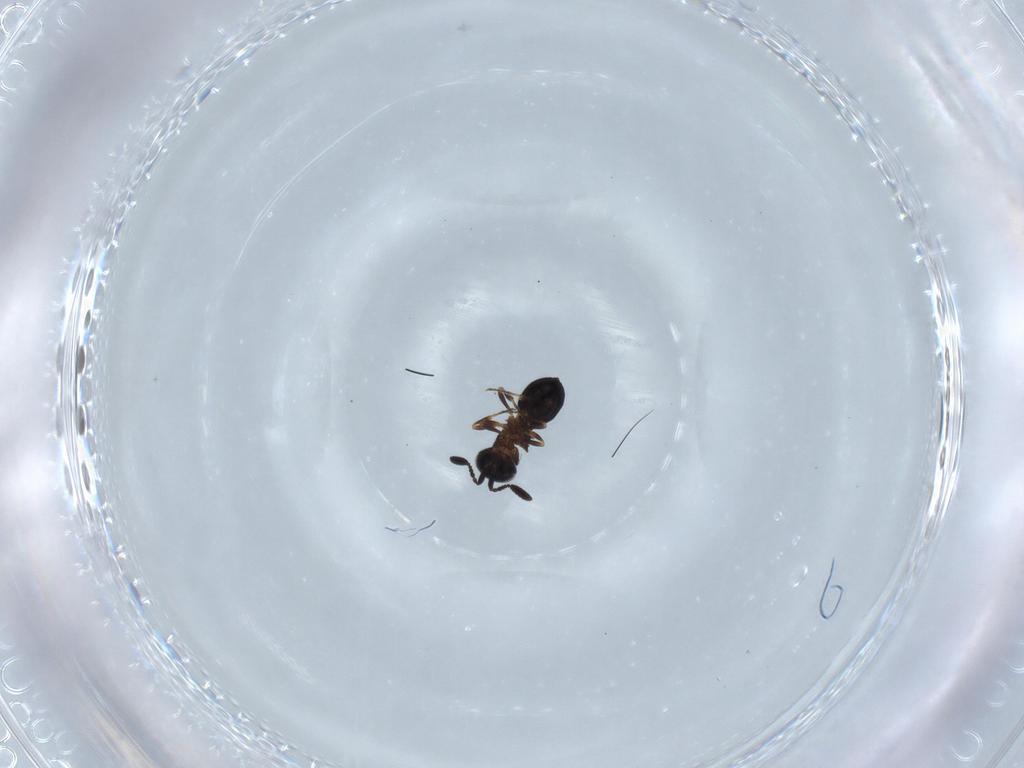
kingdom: Animalia
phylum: Arthropoda
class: Insecta
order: Hymenoptera
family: Scelionidae
